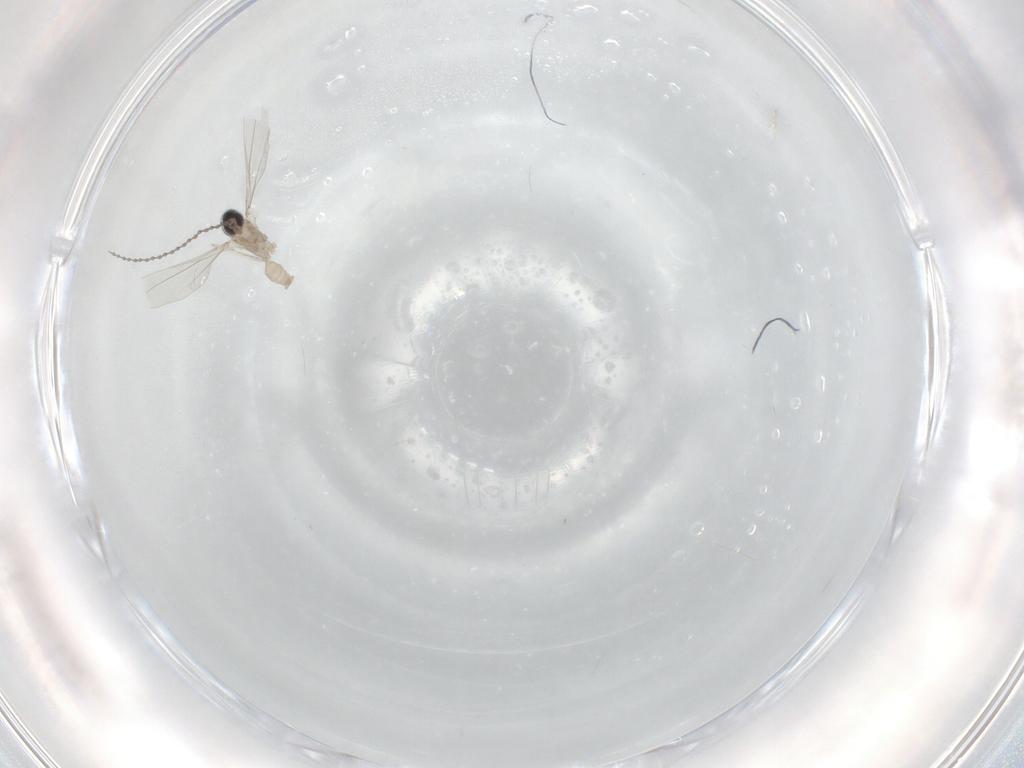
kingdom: Animalia
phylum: Arthropoda
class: Insecta
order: Diptera
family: Cecidomyiidae
